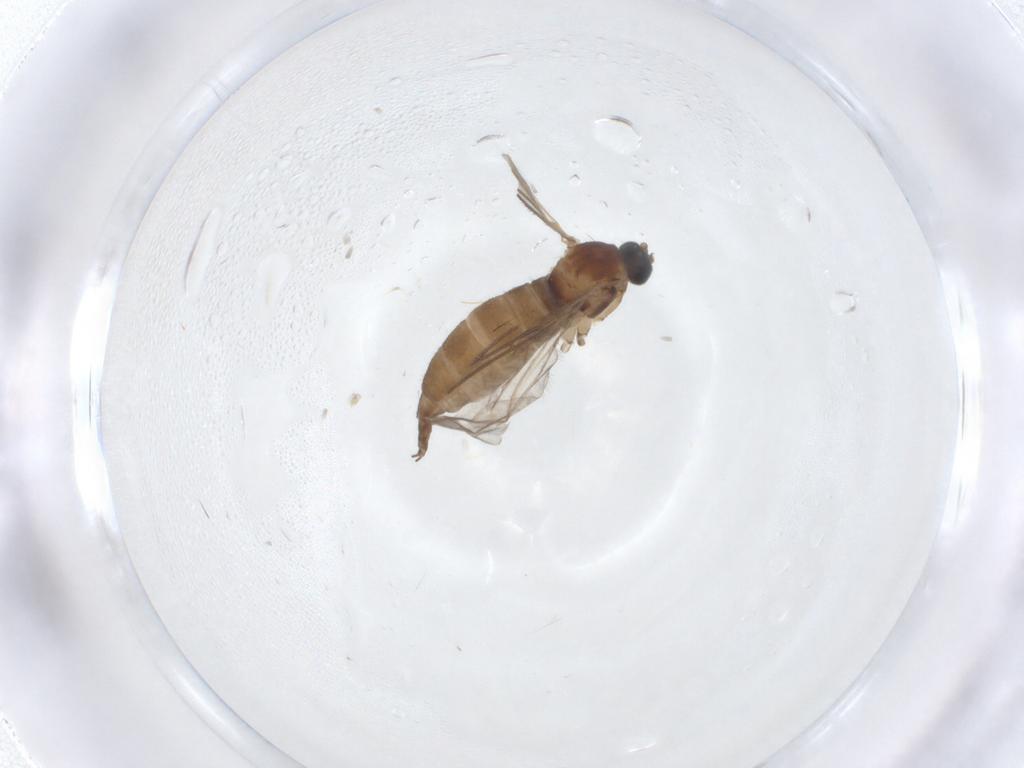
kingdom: Animalia
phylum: Arthropoda
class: Insecta
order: Diptera
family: Sciaridae
